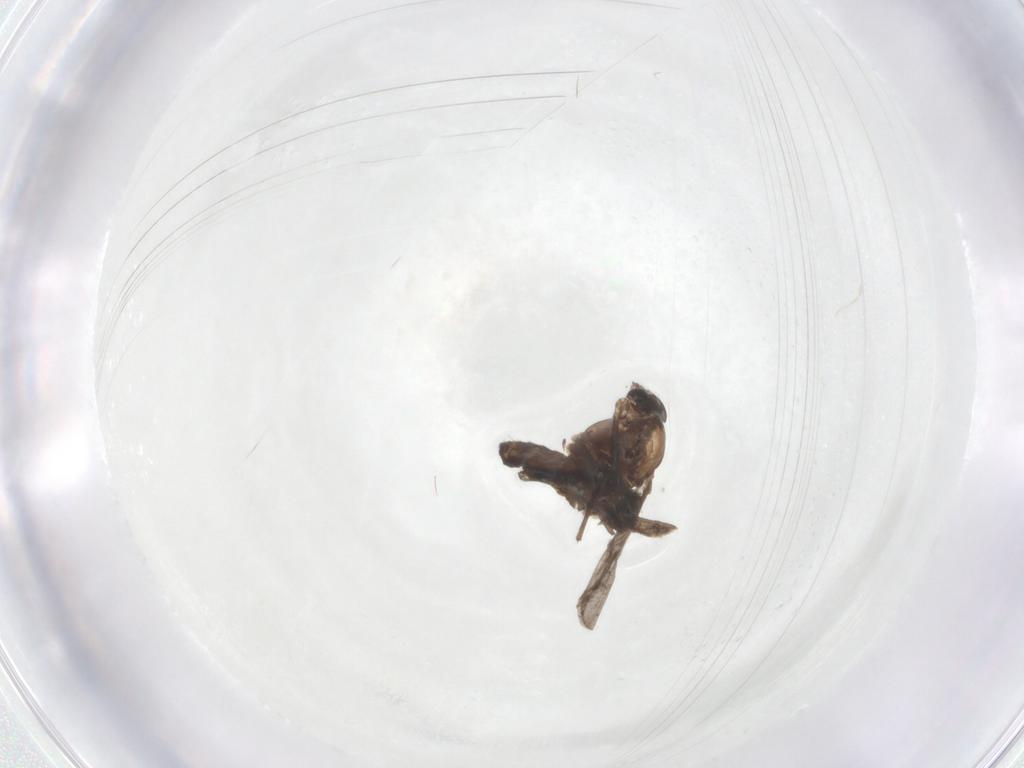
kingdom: Animalia
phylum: Arthropoda
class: Insecta
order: Diptera
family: Chironomidae
